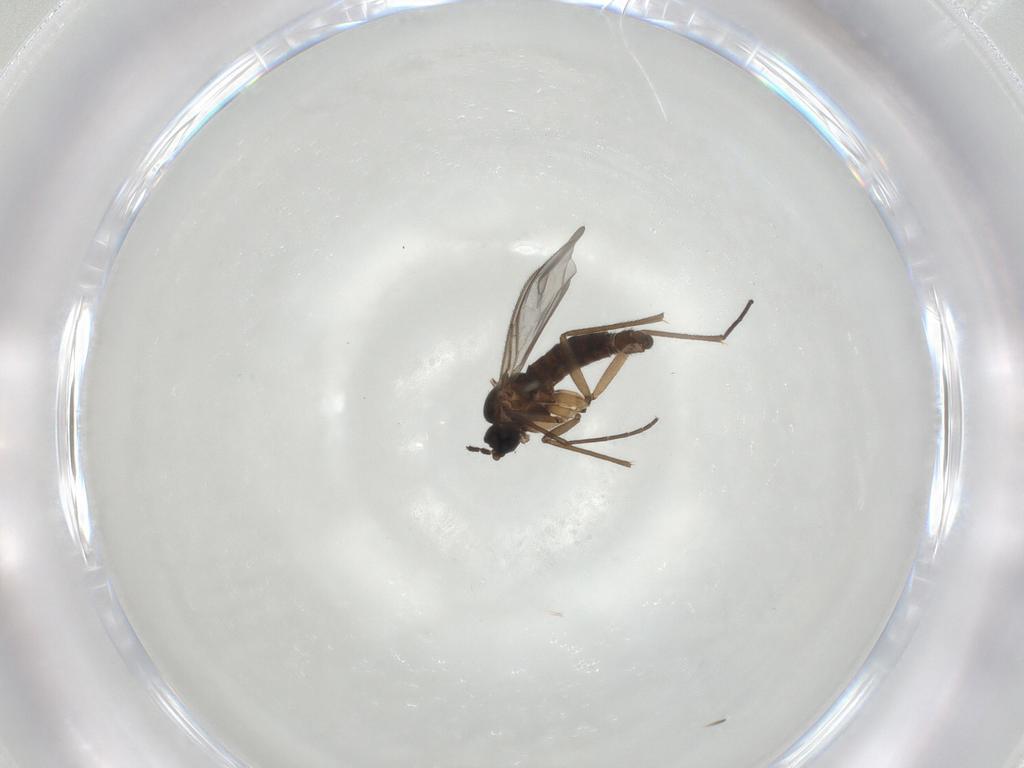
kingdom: Animalia
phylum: Arthropoda
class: Insecta
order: Diptera
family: Sciaridae
